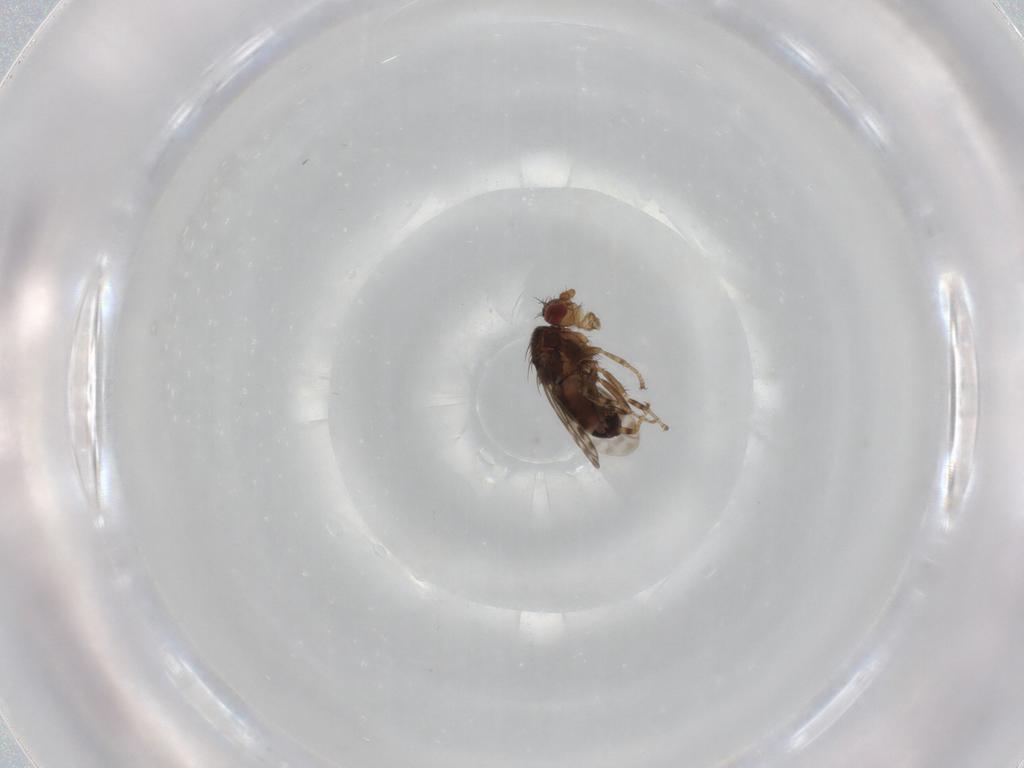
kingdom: Animalia
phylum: Arthropoda
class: Insecta
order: Diptera
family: Sphaeroceridae
